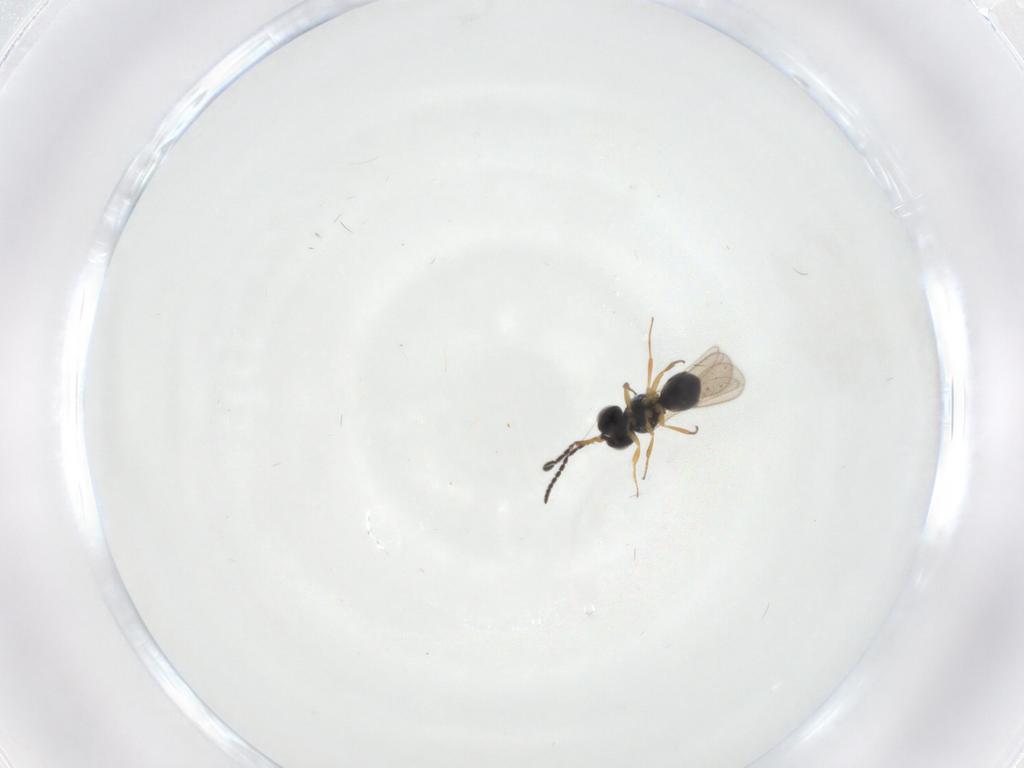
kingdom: Animalia
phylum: Arthropoda
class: Insecta
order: Hymenoptera
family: Scelionidae
